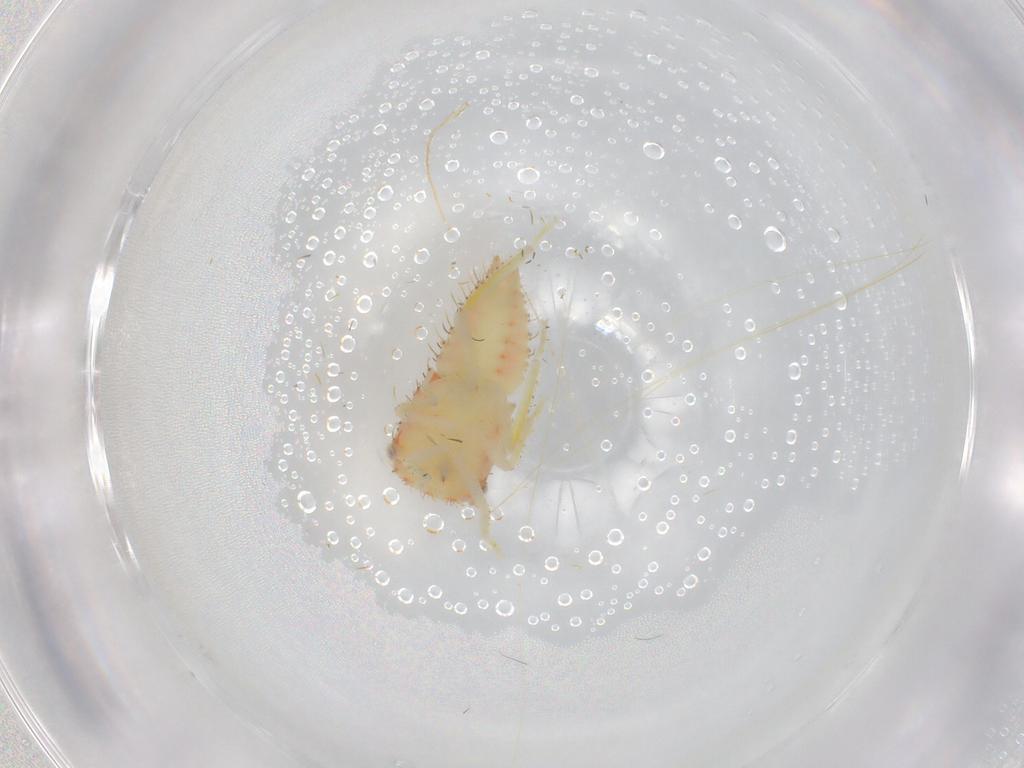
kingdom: Animalia
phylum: Arthropoda
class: Insecta
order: Hemiptera
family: Cicadellidae
